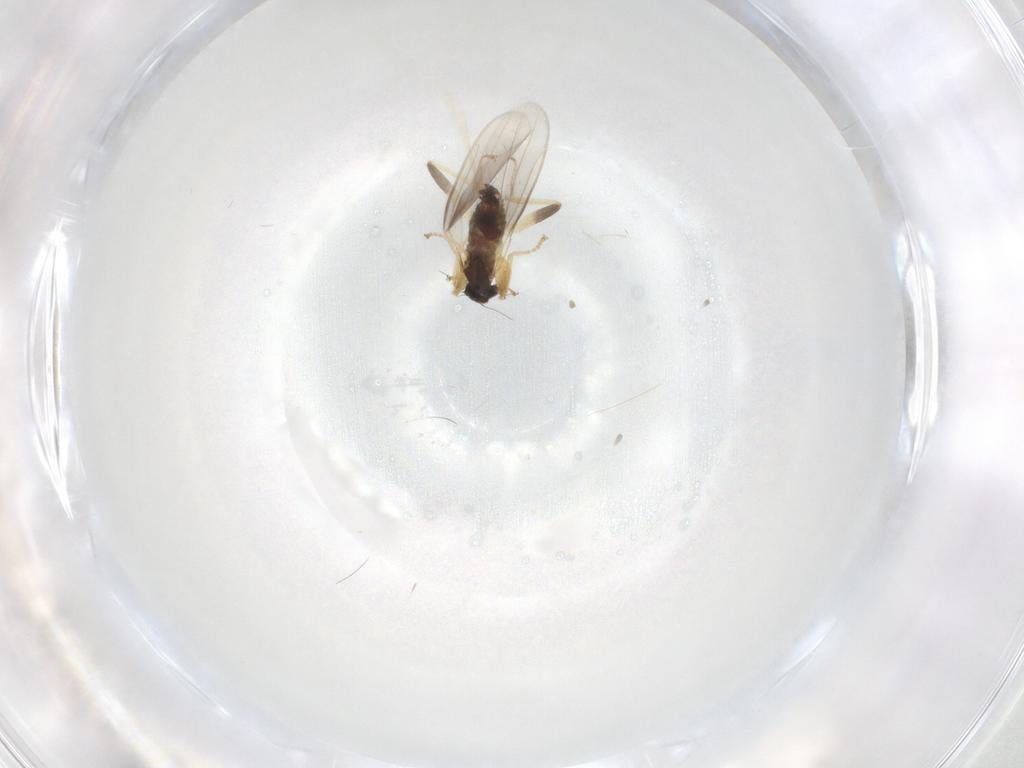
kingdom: Animalia
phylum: Arthropoda
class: Insecta
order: Diptera
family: Hybotidae
